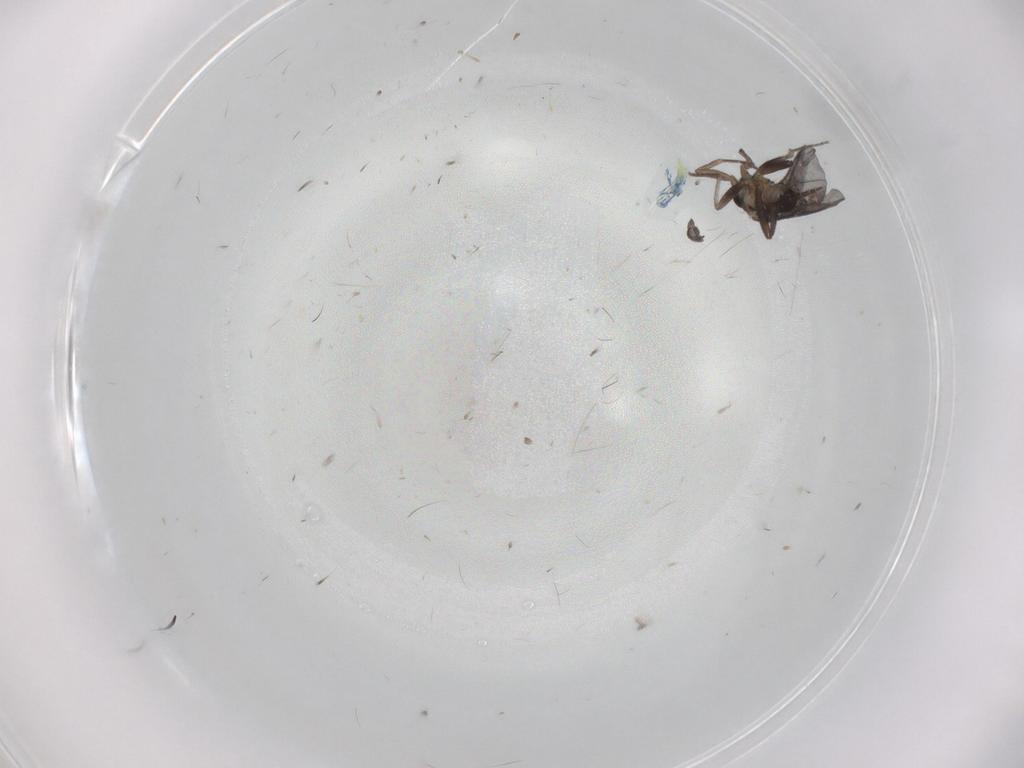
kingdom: Animalia
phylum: Arthropoda
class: Insecta
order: Diptera
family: Phoridae
